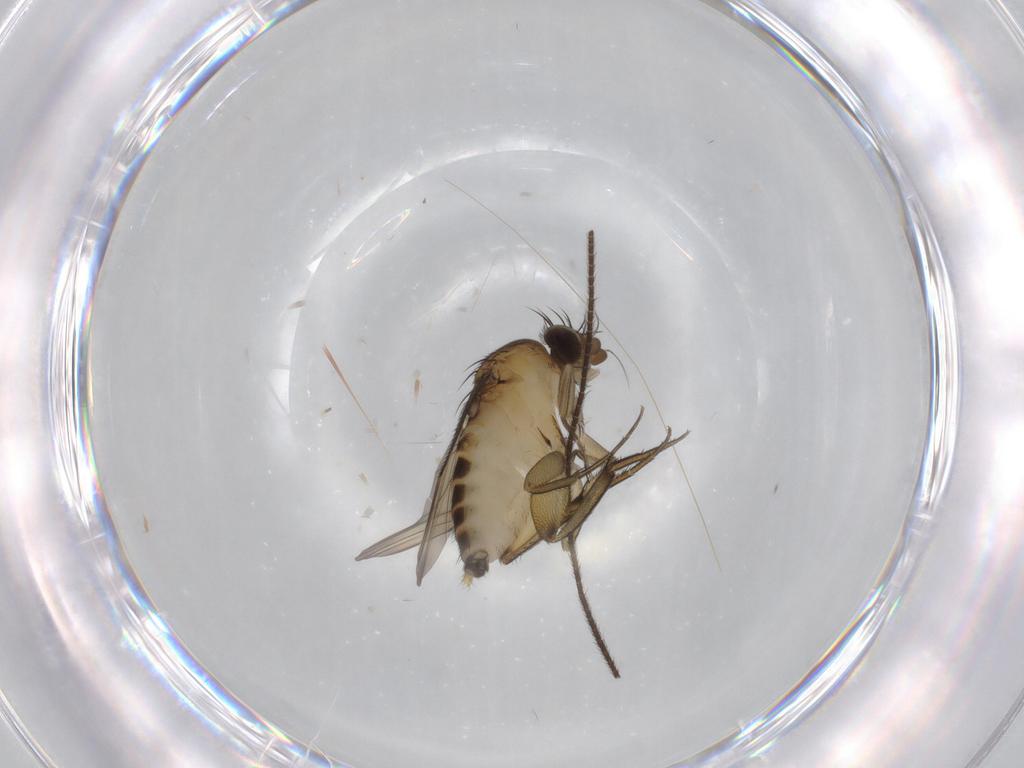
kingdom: Animalia
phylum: Arthropoda
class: Insecta
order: Diptera
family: Phoridae
